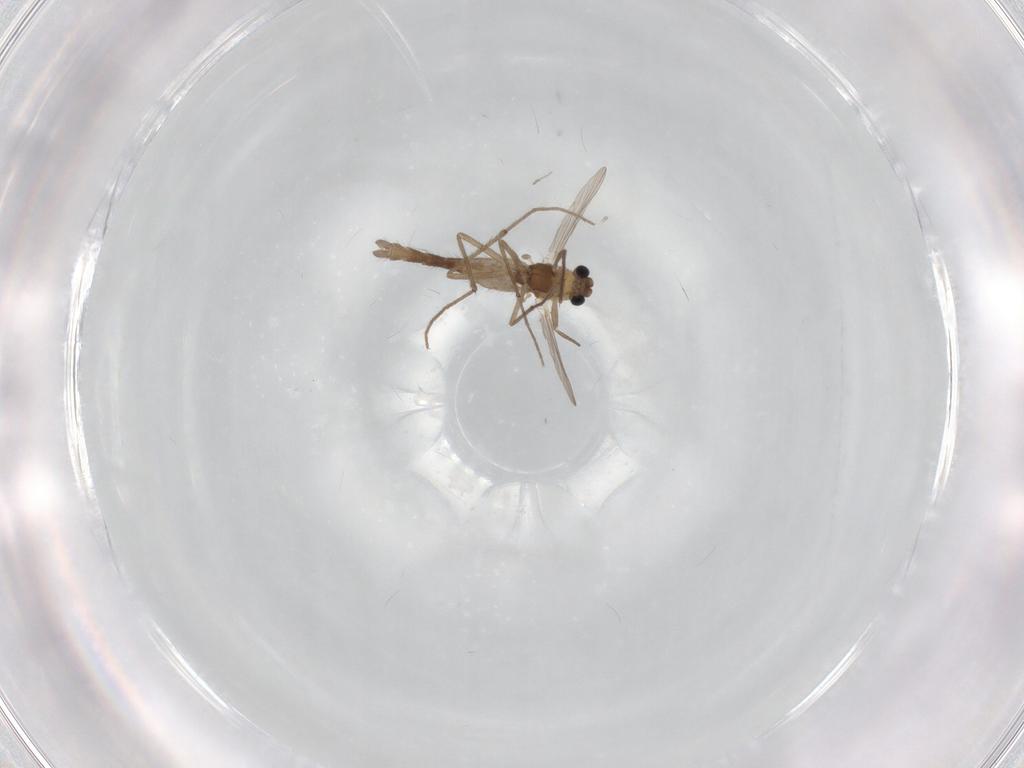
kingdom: Animalia
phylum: Arthropoda
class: Insecta
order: Diptera
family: Chironomidae
